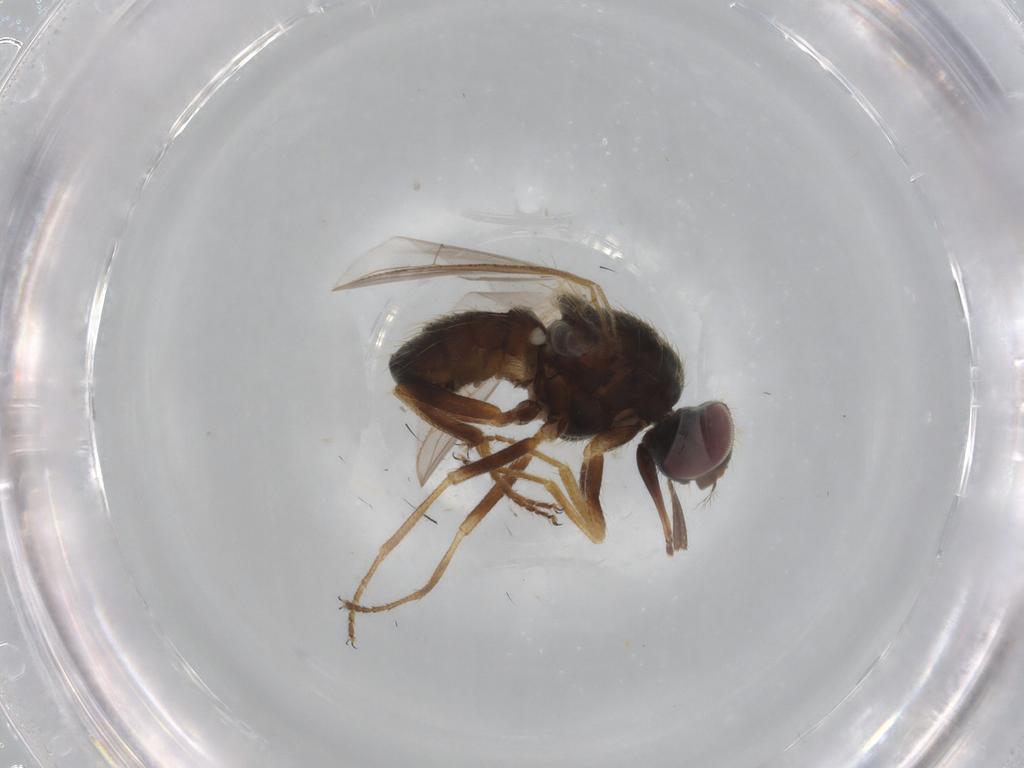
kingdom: Animalia
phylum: Arthropoda
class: Insecta
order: Diptera
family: Muscidae
